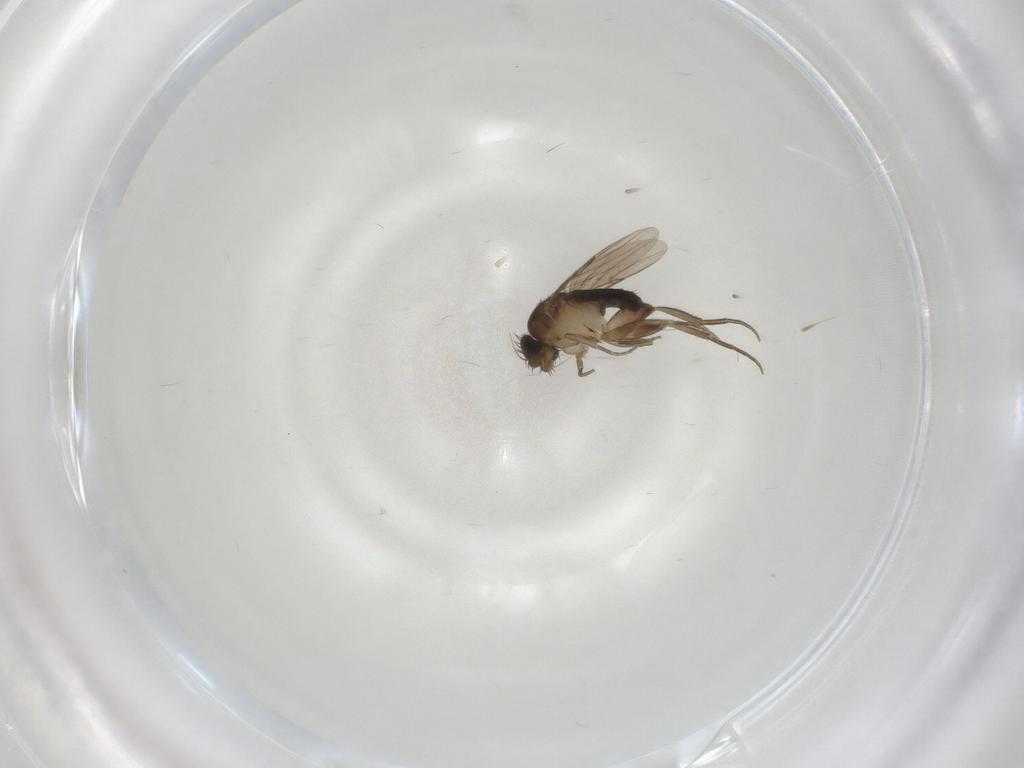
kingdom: Animalia
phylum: Arthropoda
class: Insecta
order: Diptera
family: Phoridae
